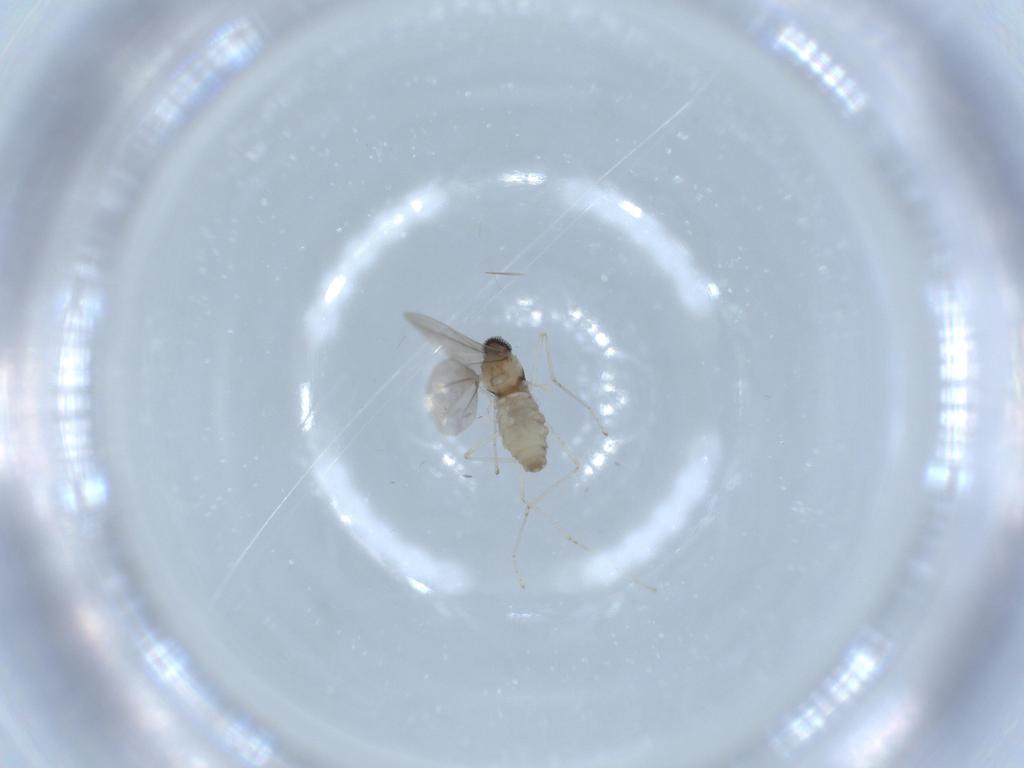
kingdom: Animalia
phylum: Arthropoda
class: Insecta
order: Diptera
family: Cecidomyiidae
